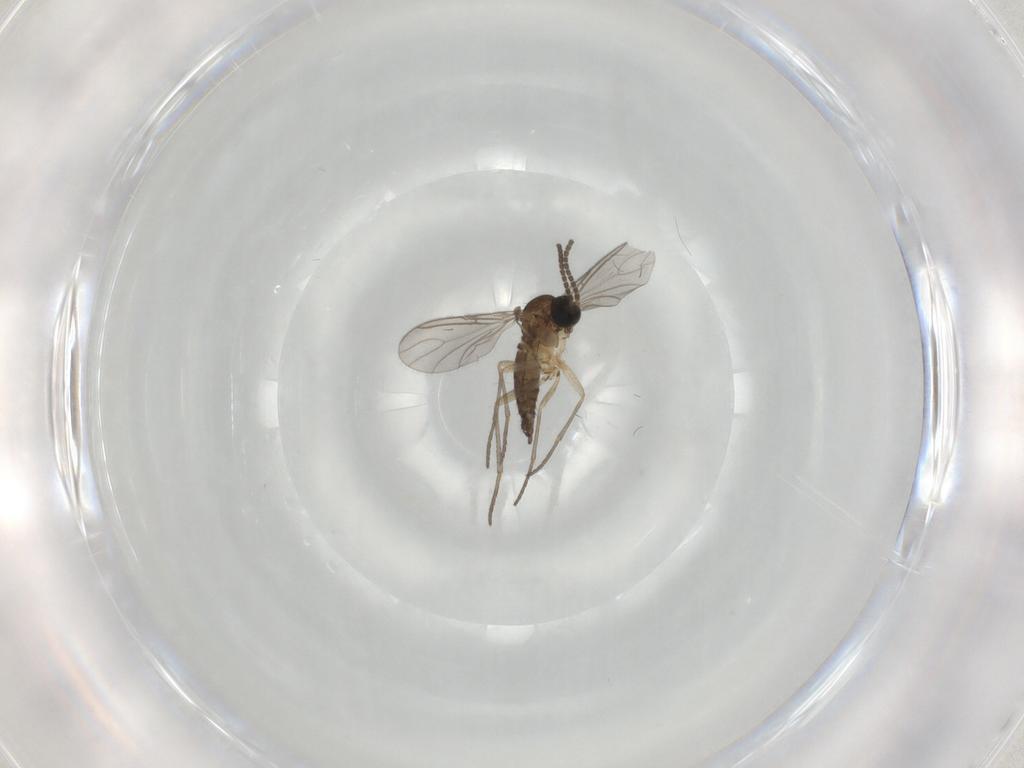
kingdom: Animalia
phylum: Arthropoda
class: Insecta
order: Diptera
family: Sciaridae
